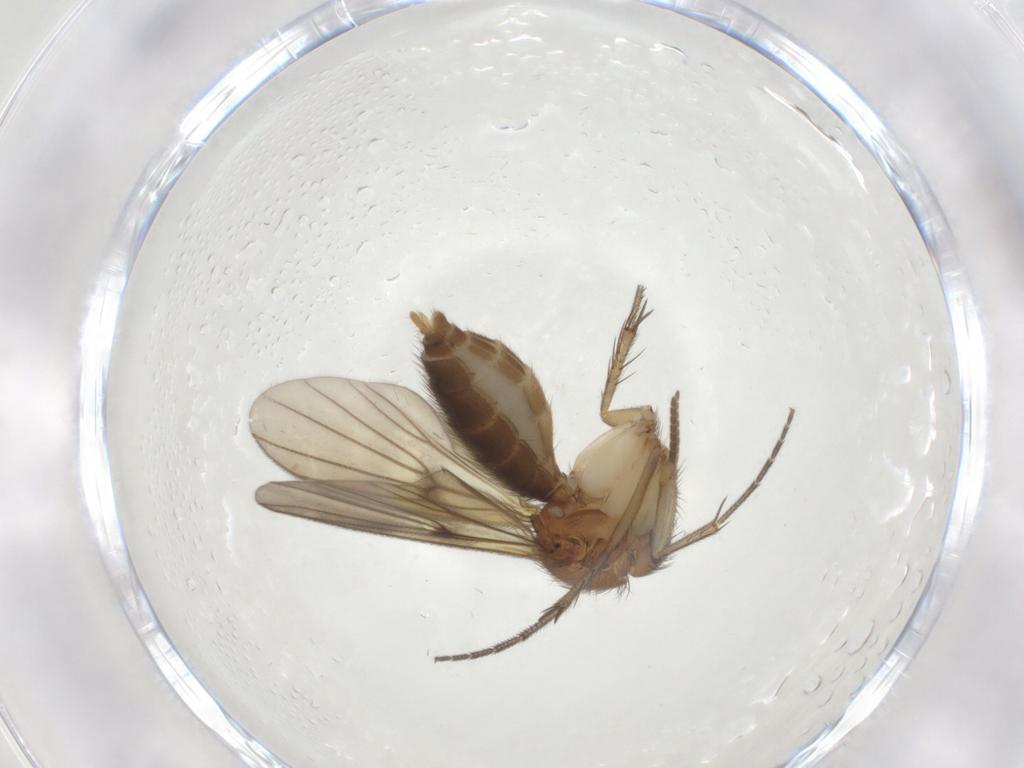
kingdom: Animalia
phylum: Arthropoda
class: Insecta
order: Diptera
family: Mycetophilidae
